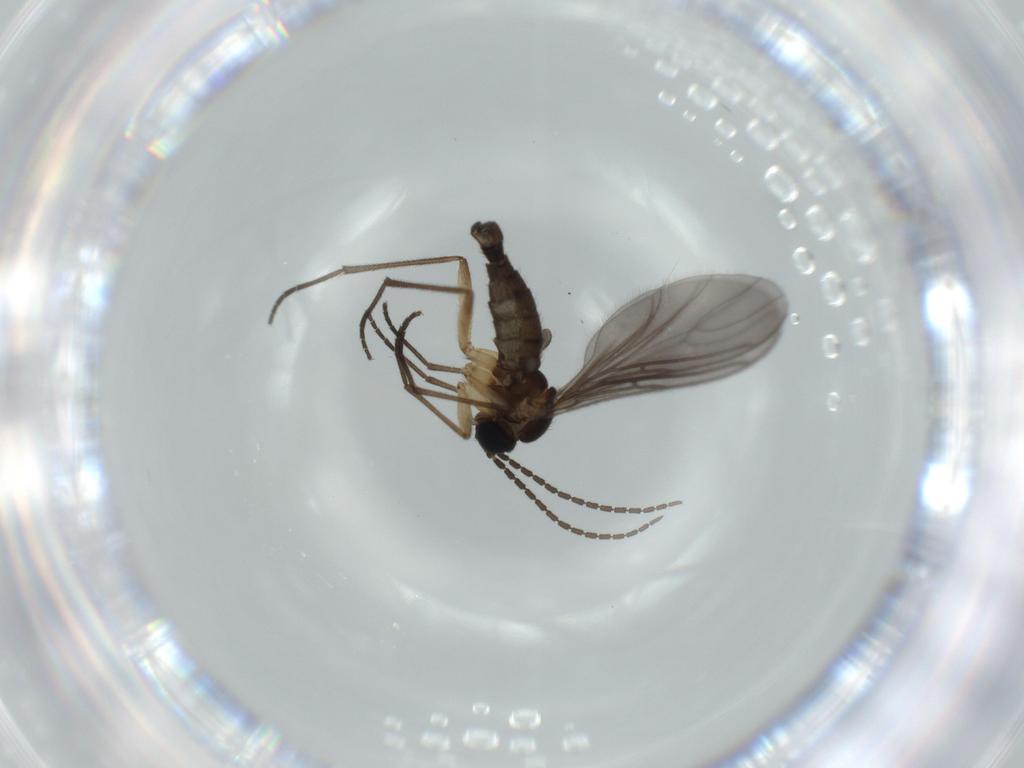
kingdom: Animalia
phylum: Arthropoda
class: Insecta
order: Diptera
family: Sciaridae
